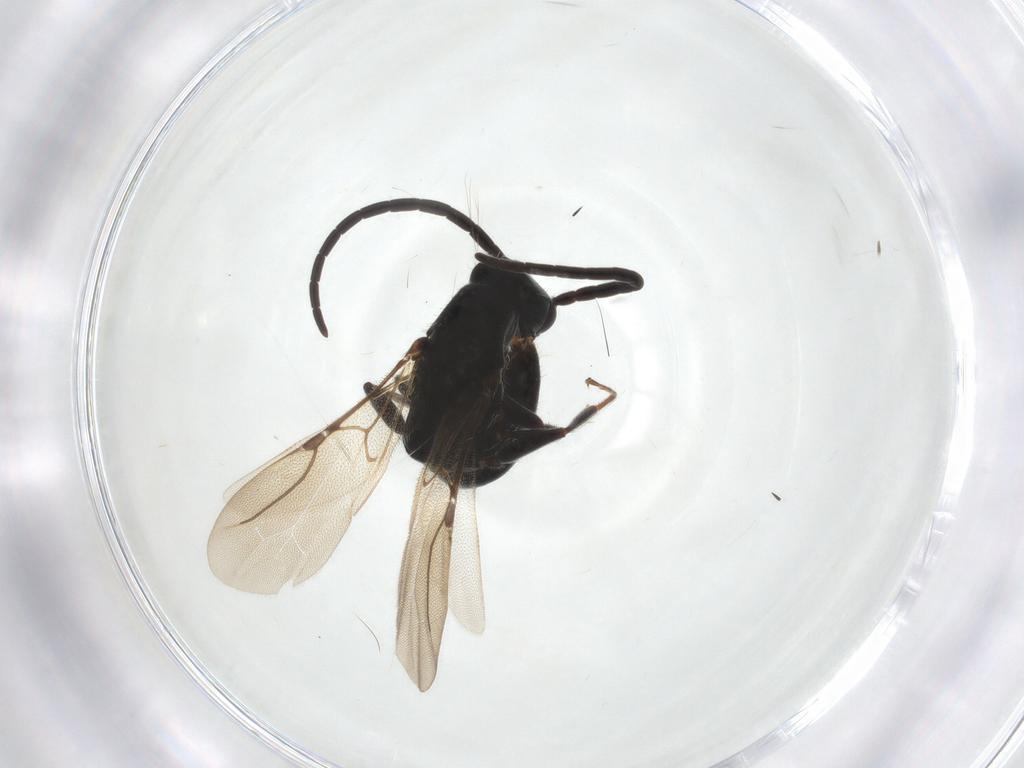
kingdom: Animalia
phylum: Arthropoda
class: Insecta
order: Hymenoptera
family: Bethylidae
